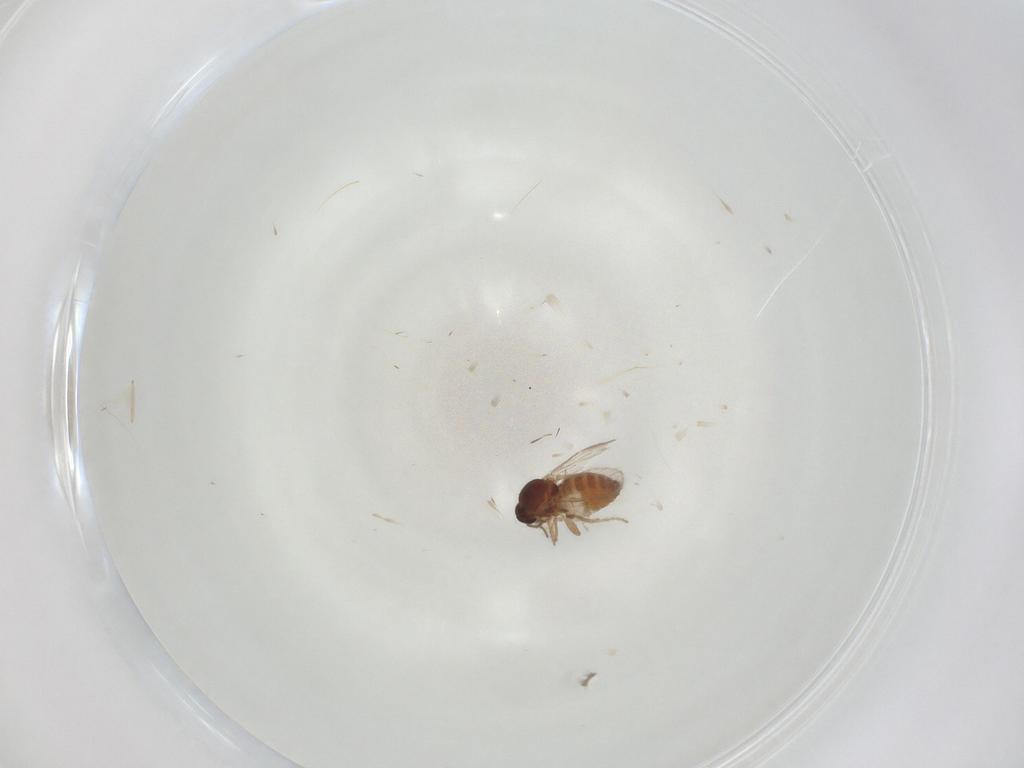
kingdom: Animalia
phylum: Arthropoda
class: Insecta
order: Diptera
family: Ceratopogonidae
